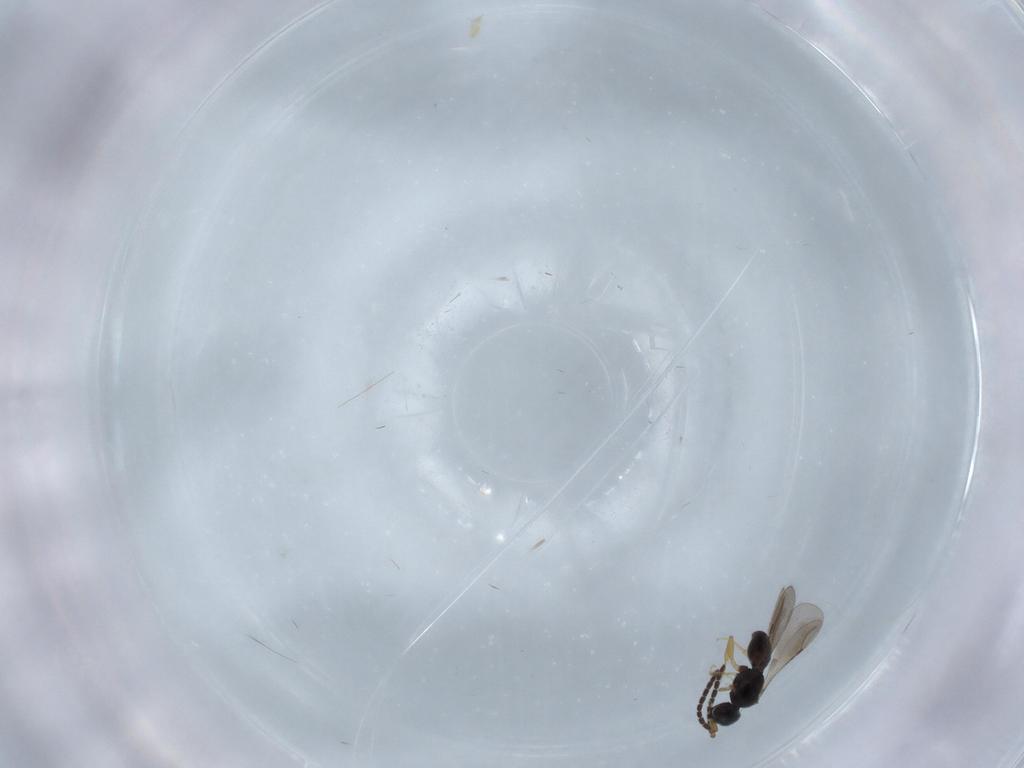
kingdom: Animalia
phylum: Arthropoda
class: Insecta
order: Hymenoptera
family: Ceraphronidae
